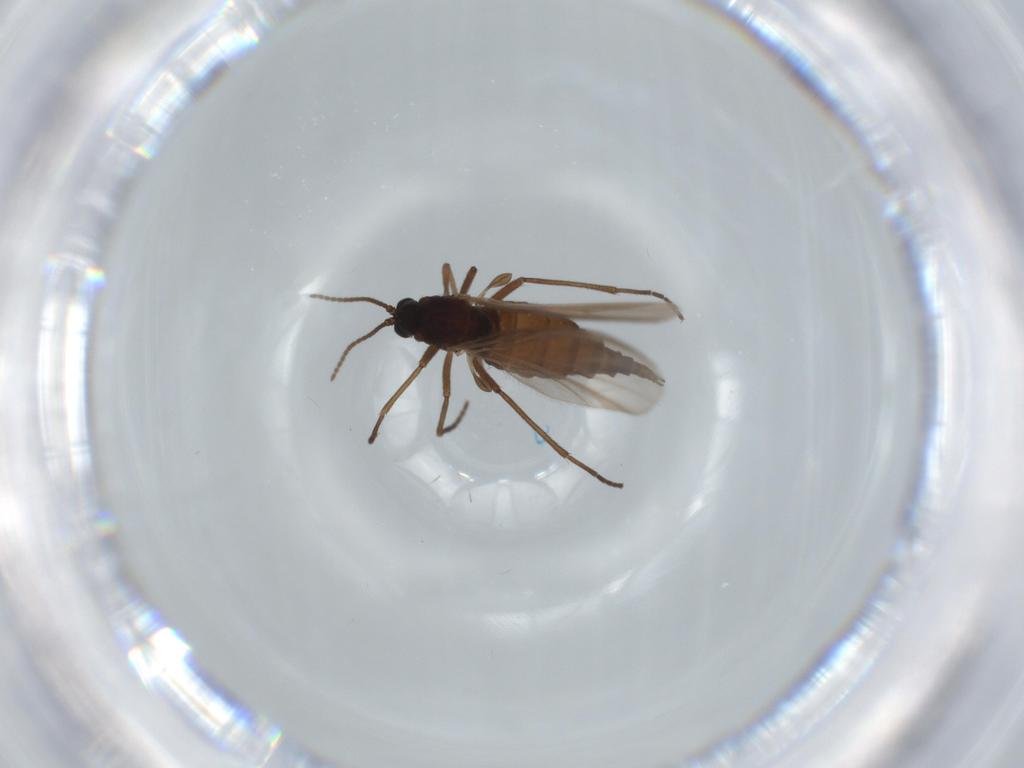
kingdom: Animalia
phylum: Arthropoda
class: Insecta
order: Diptera
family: Sciaridae
